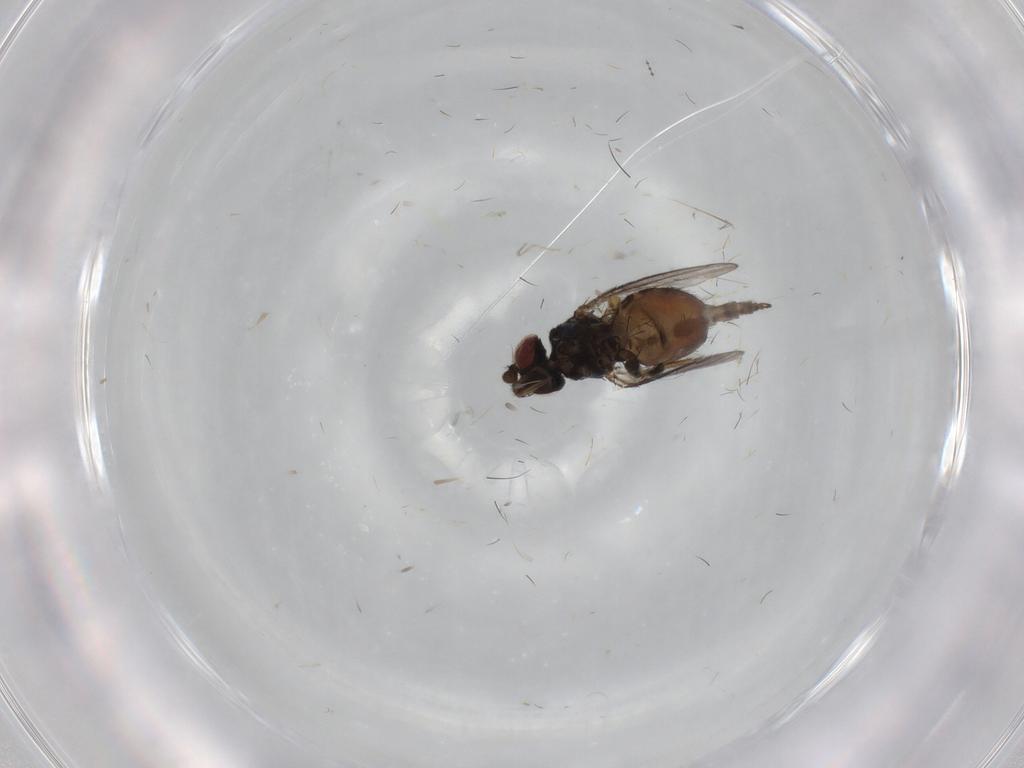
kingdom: Animalia
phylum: Arthropoda
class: Insecta
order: Diptera
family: Milichiidae
